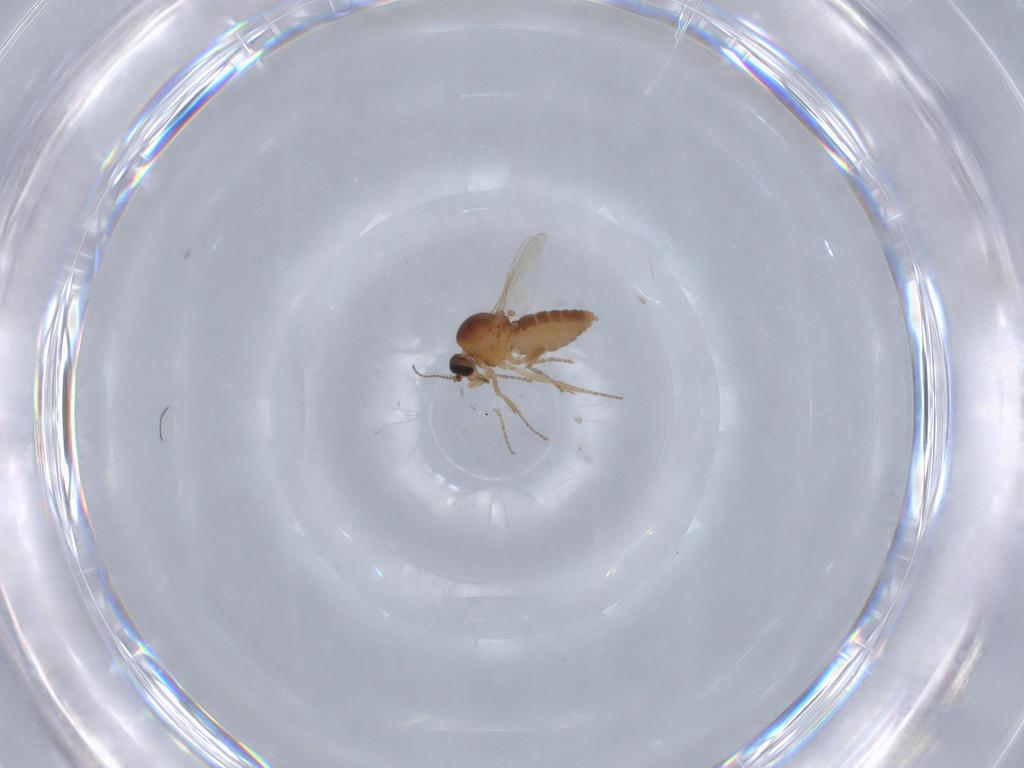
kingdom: Animalia
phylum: Arthropoda
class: Insecta
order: Diptera
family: Ceratopogonidae
